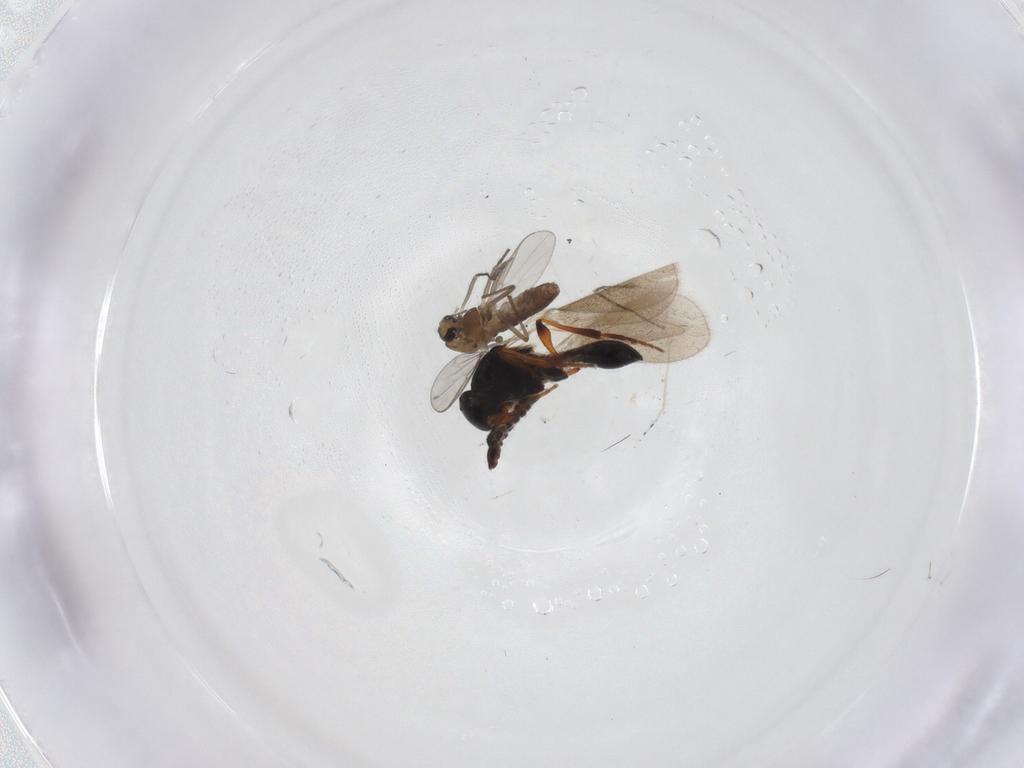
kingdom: Animalia
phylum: Arthropoda
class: Insecta
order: Diptera
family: Chironomidae
